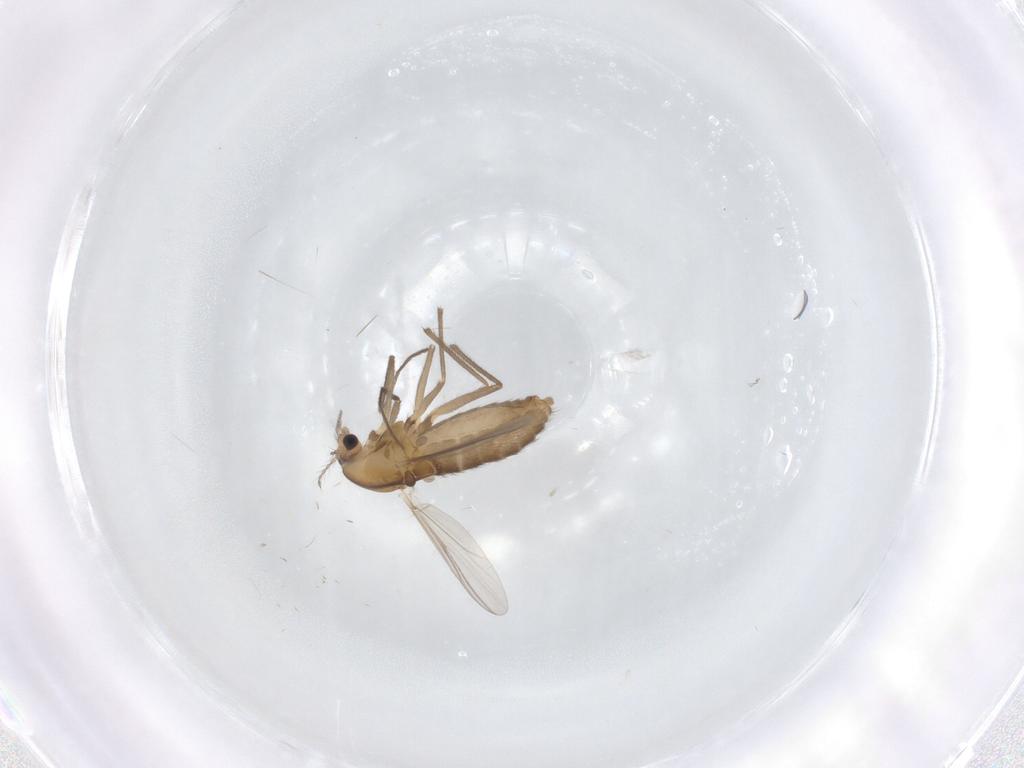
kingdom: Animalia
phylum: Arthropoda
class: Insecta
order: Diptera
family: Chironomidae
